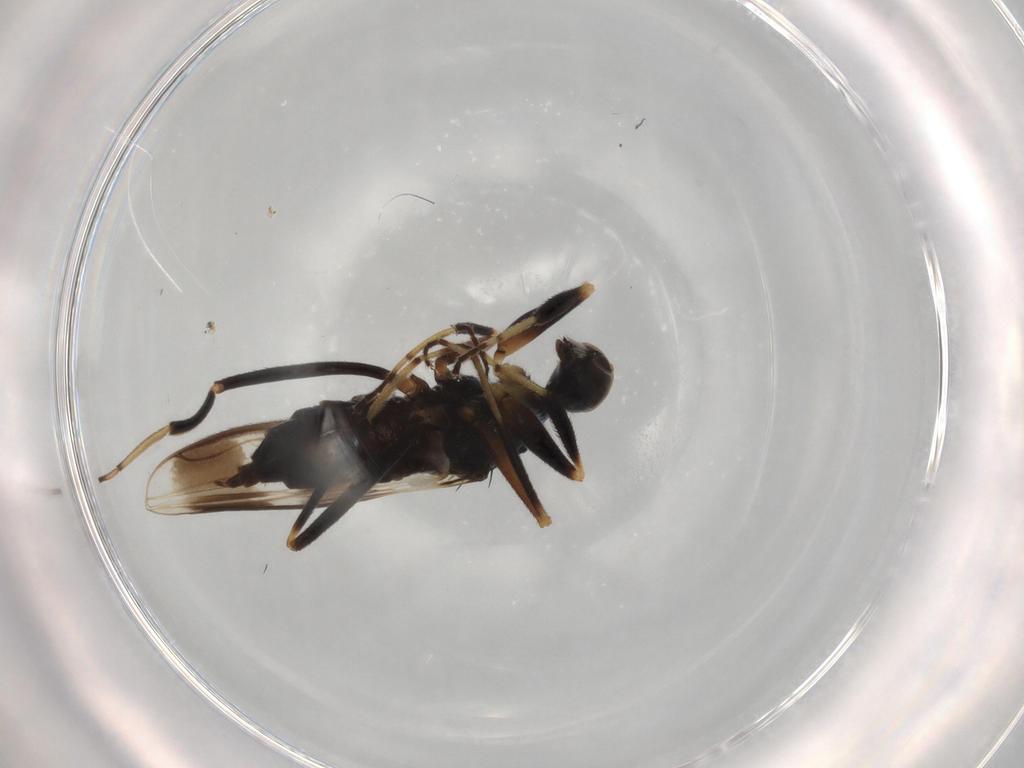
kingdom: Animalia
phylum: Arthropoda
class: Insecta
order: Diptera
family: Hybotidae
